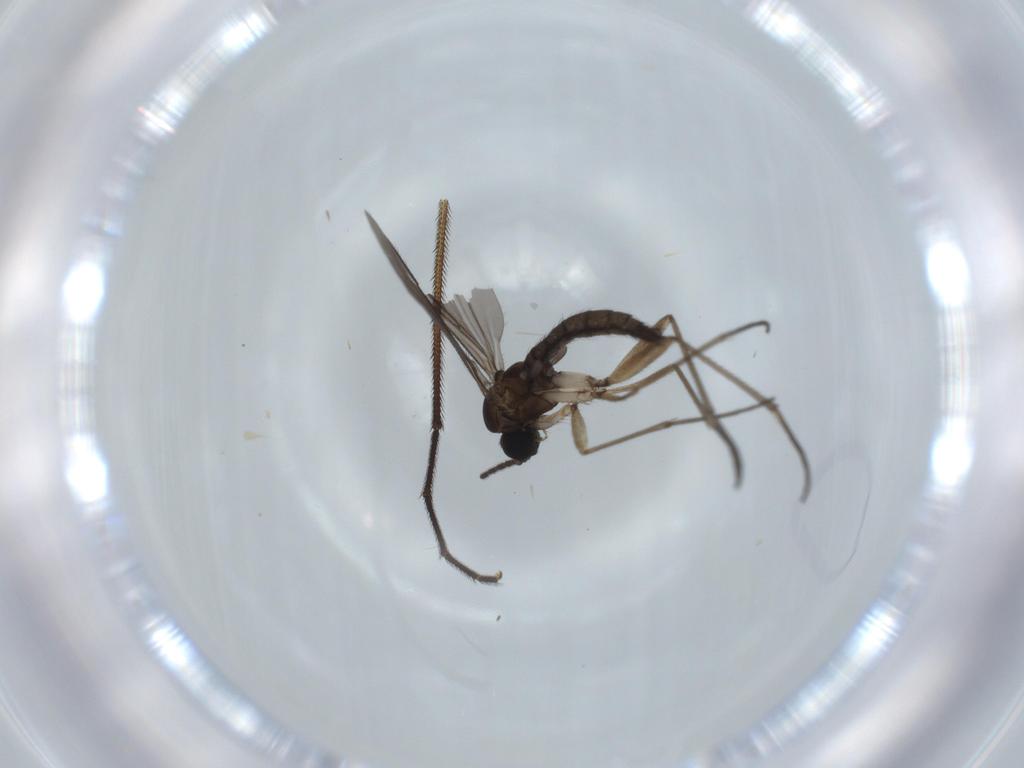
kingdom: Animalia
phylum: Arthropoda
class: Insecta
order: Diptera
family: Dolichopodidae
